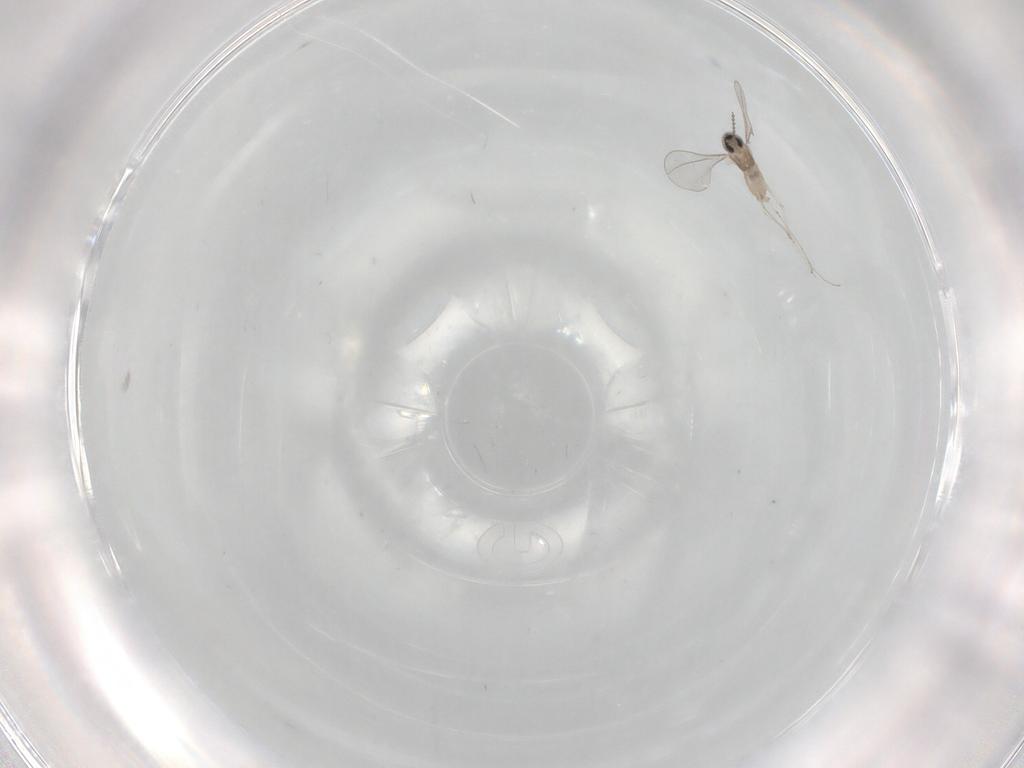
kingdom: Animalia
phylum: Arthropoda
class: Insecta
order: Diptera
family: Cecidomyiidae
